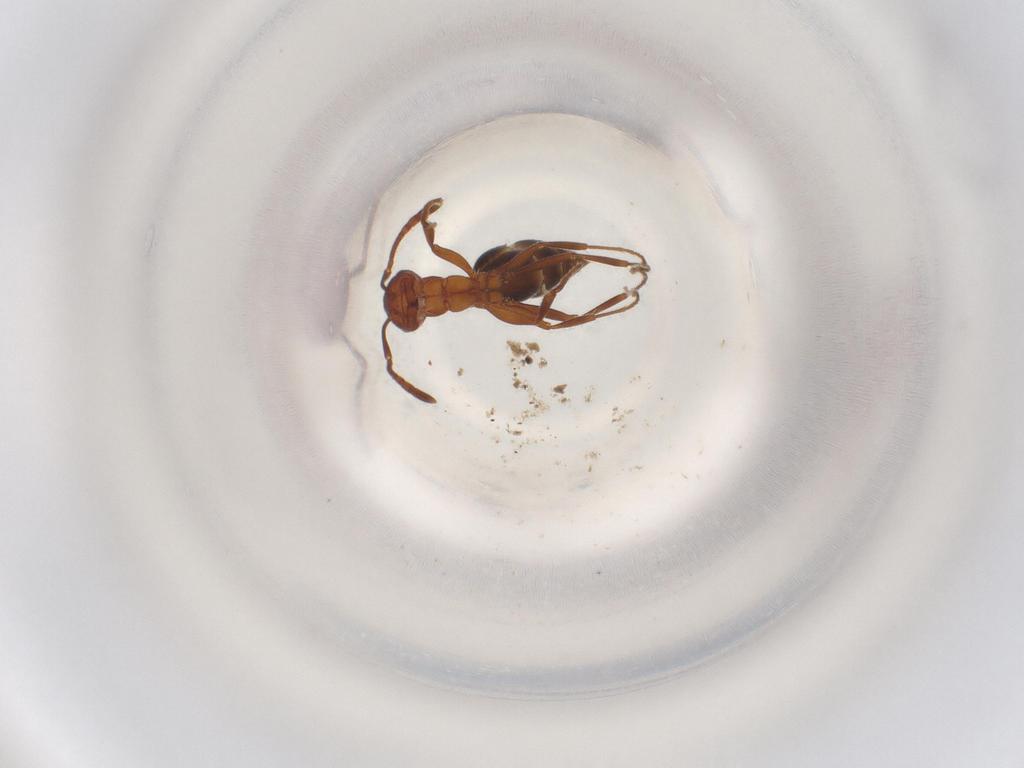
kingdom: Animalia
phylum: Arthropoda
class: Insecta
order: Hymenoptera
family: Formicidae
